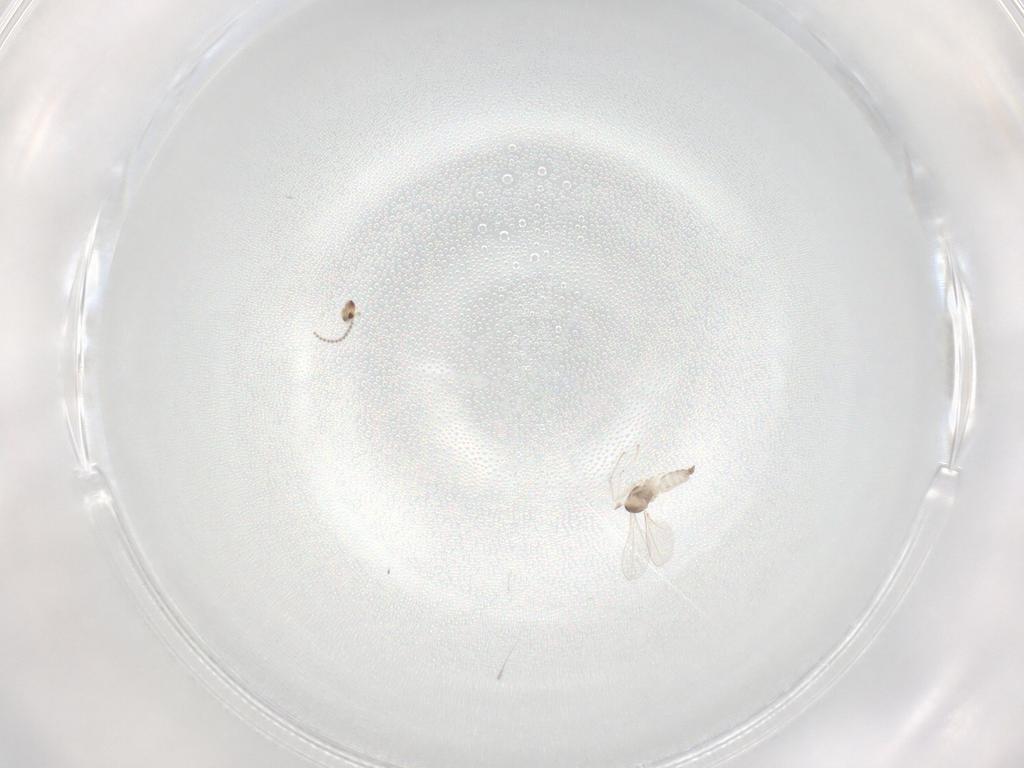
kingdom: Animalia
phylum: Arthropoda
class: Insecta
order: Diptera
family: Cecidomyiidae
